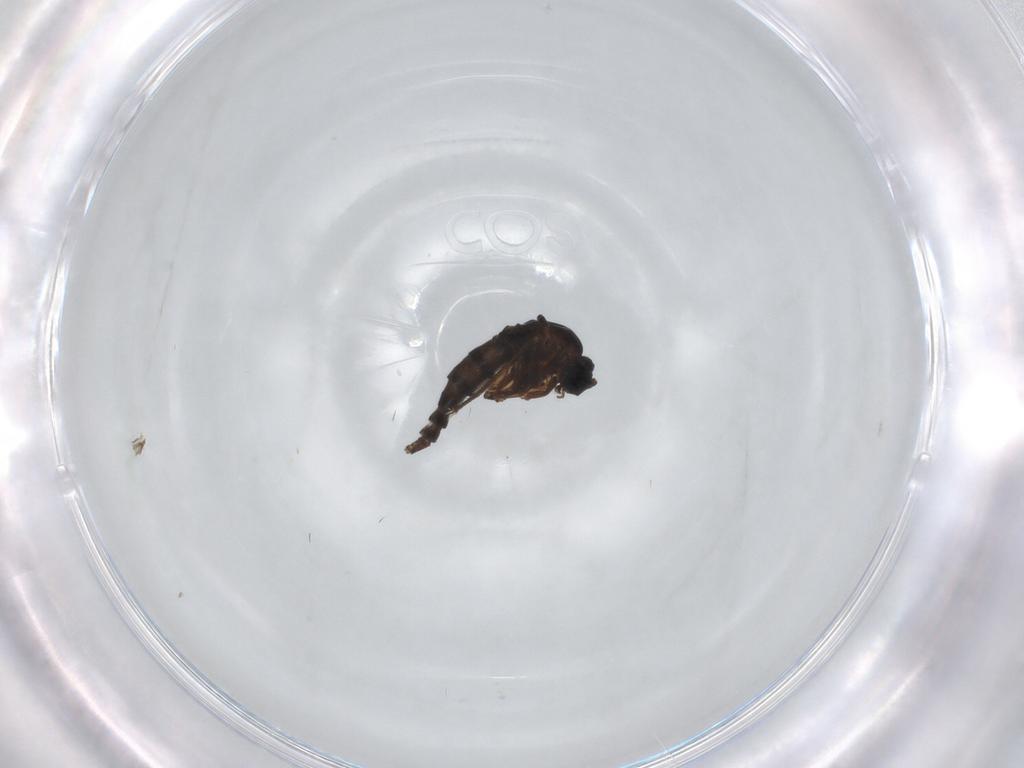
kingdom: Animalia
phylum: Arthropoda
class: Insecta
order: Diptera
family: Sciaridae
